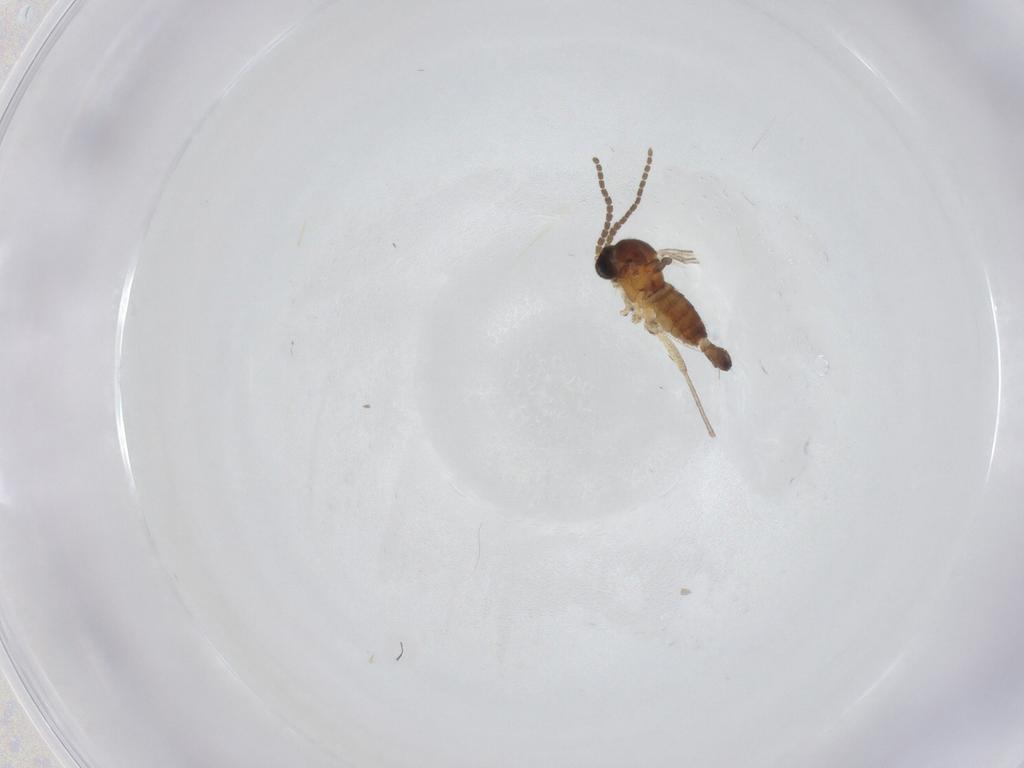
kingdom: Animalia
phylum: Arthropoda
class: Insecta
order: Diptera
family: Sciaridae
